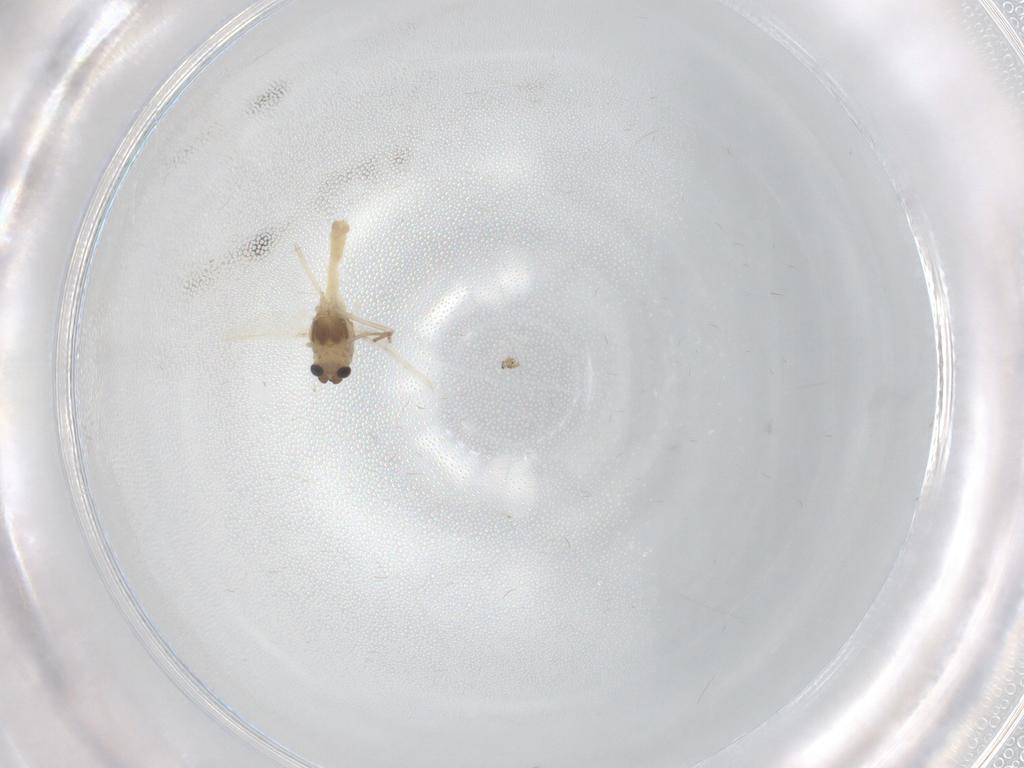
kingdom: Animalia
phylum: Arthropoda
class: Insecta
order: Diptera
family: Chironomidae
